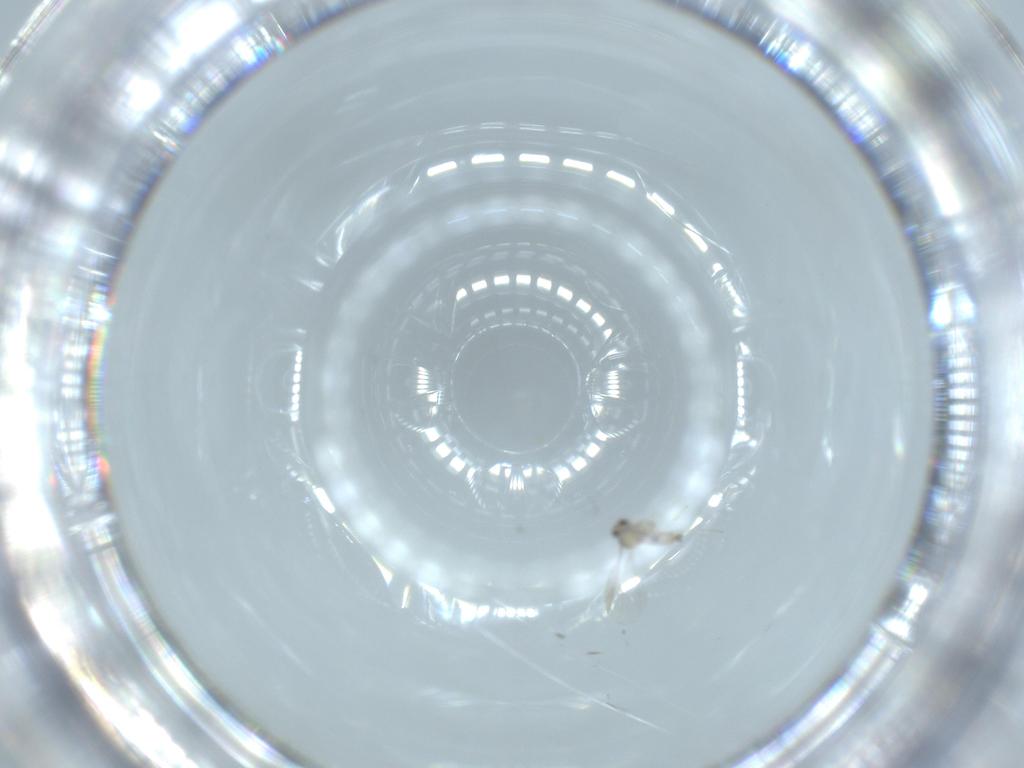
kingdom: Animalia
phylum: Arthropoda
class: Insecta
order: Diptera
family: Cecidomyiidae
